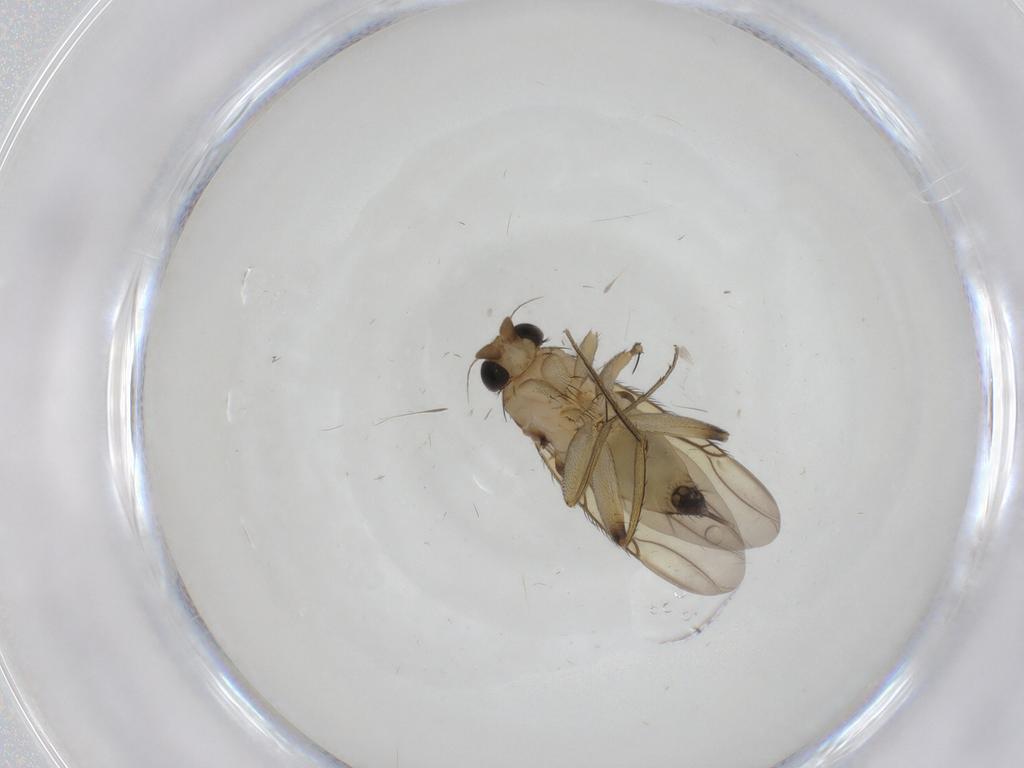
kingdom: Animalia
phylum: Arthropoda
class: Insecta
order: Diptera
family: Phoridae
